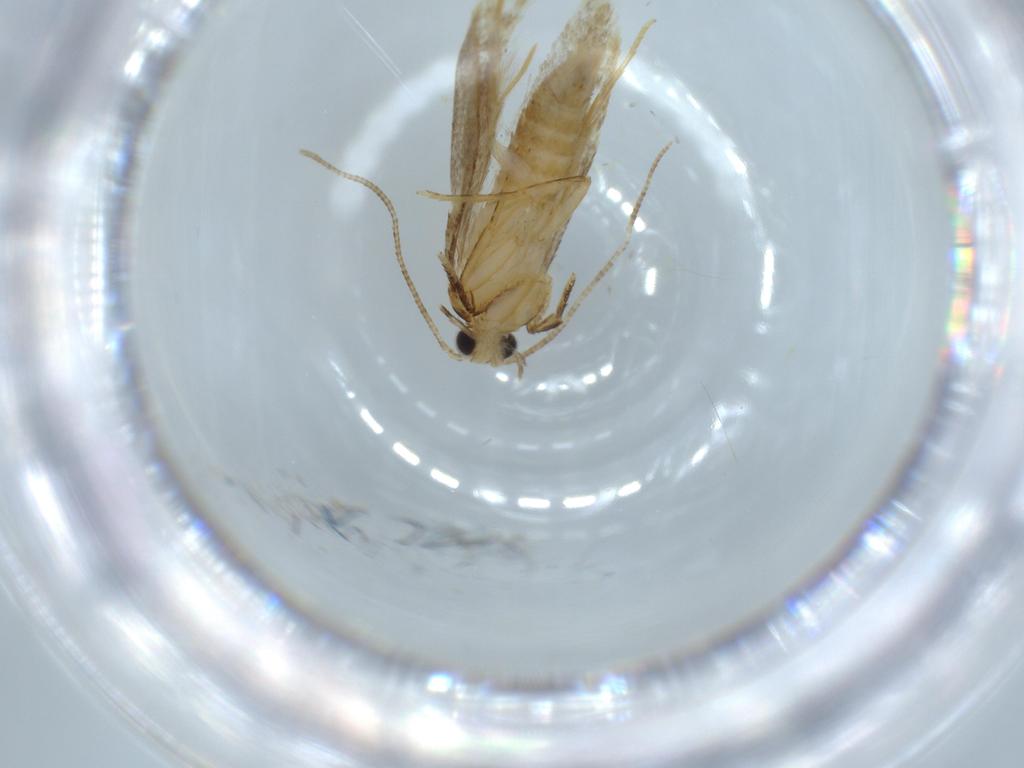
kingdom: Animalia
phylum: Arthropoda
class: Insecta
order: Lepidoptera
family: Tineidae
